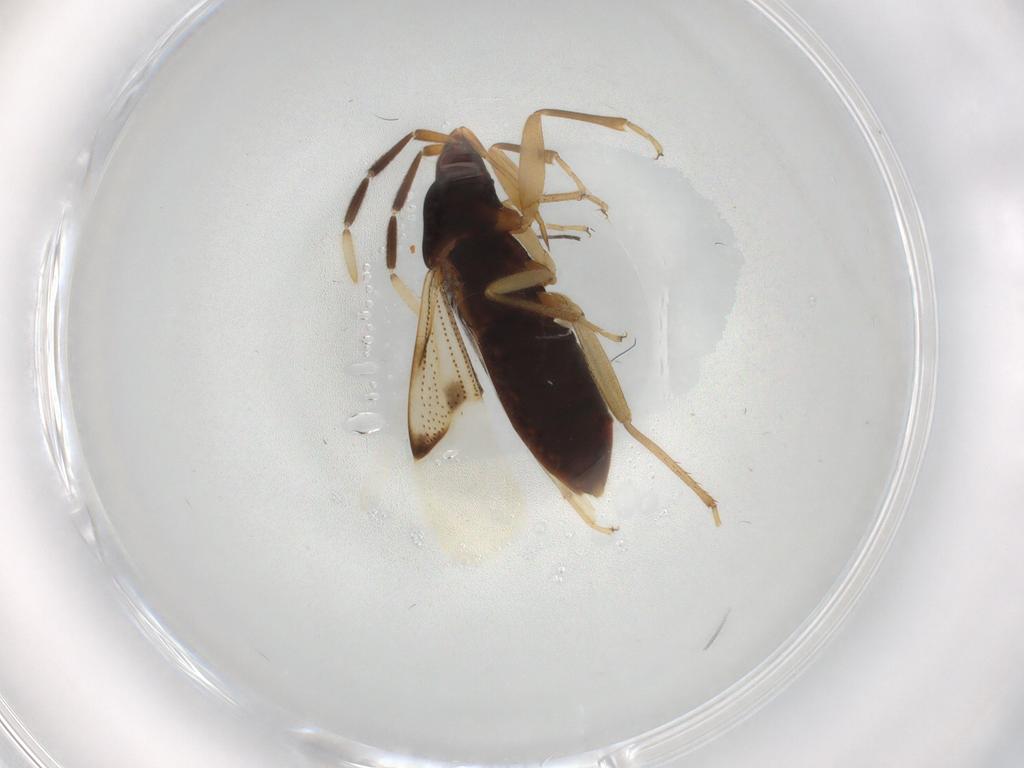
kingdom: Animalia
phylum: Arthropoda
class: Insecta
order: Hemiptera
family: Rhyparochromidae
